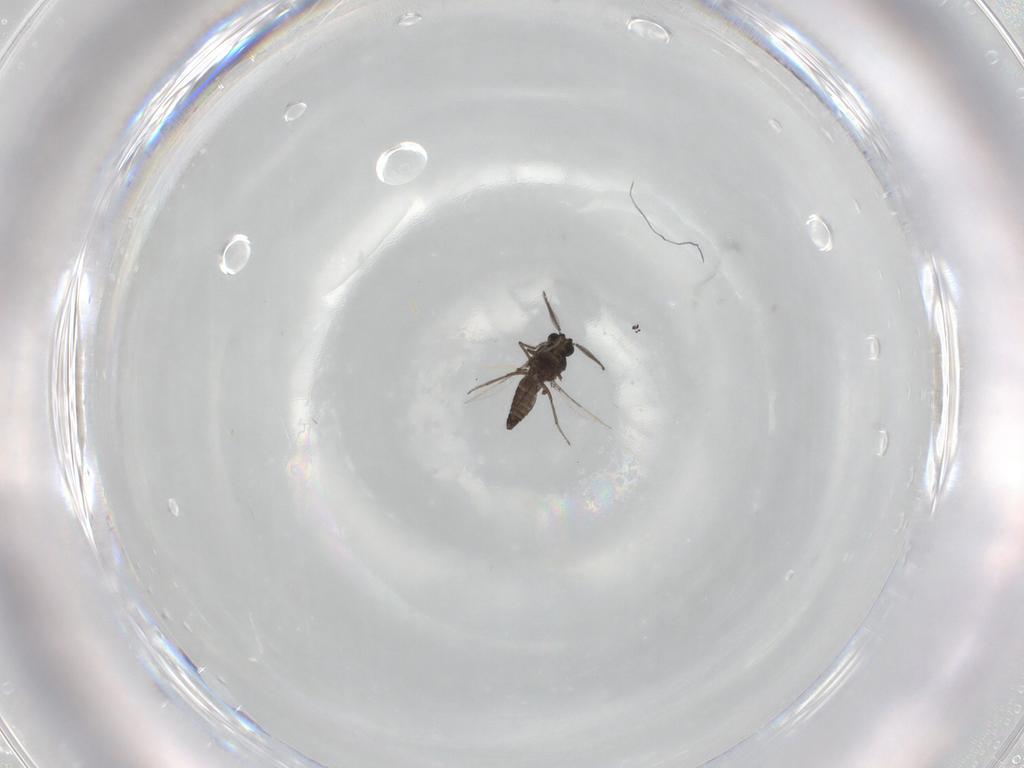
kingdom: Animalia
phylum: Arthropoda
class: Insecta
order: Diptera
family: Ceratopogonidae
